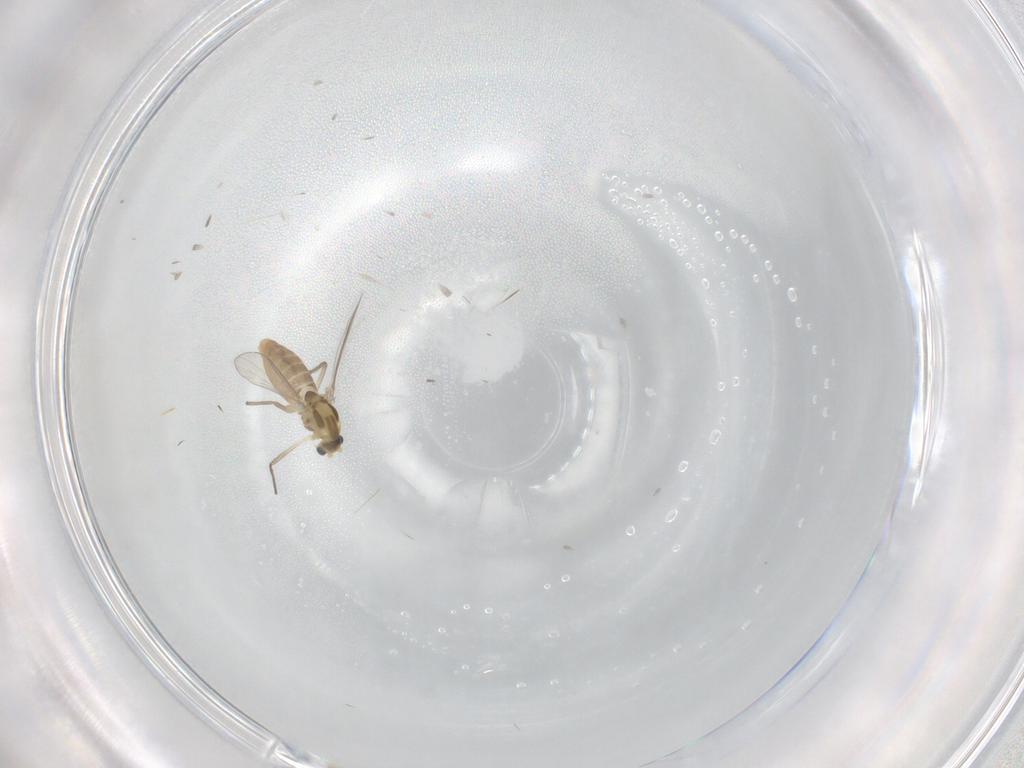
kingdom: Animalia
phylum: Arthropoda
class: Insecta
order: Diptera
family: Chironomidae
